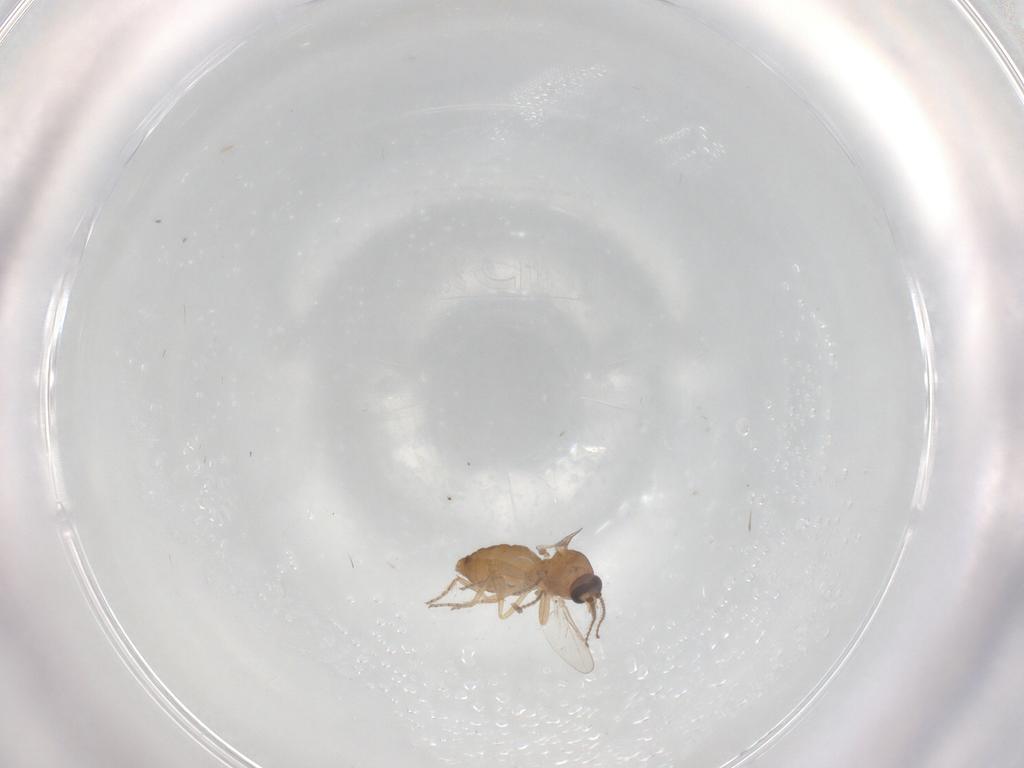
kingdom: Animalia
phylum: Arthropoda
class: Insecta
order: Diptera
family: Ceratopogonidae
